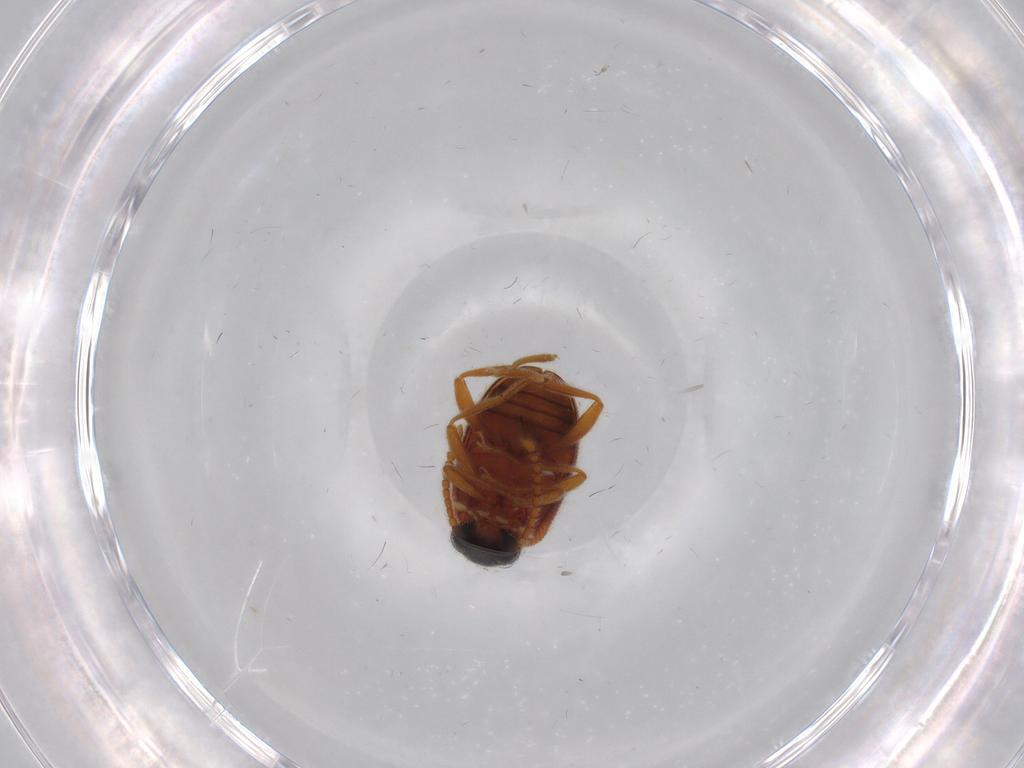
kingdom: Animalia
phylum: Arthropoda
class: Insecta
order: Coleoptera
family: Aderidae
